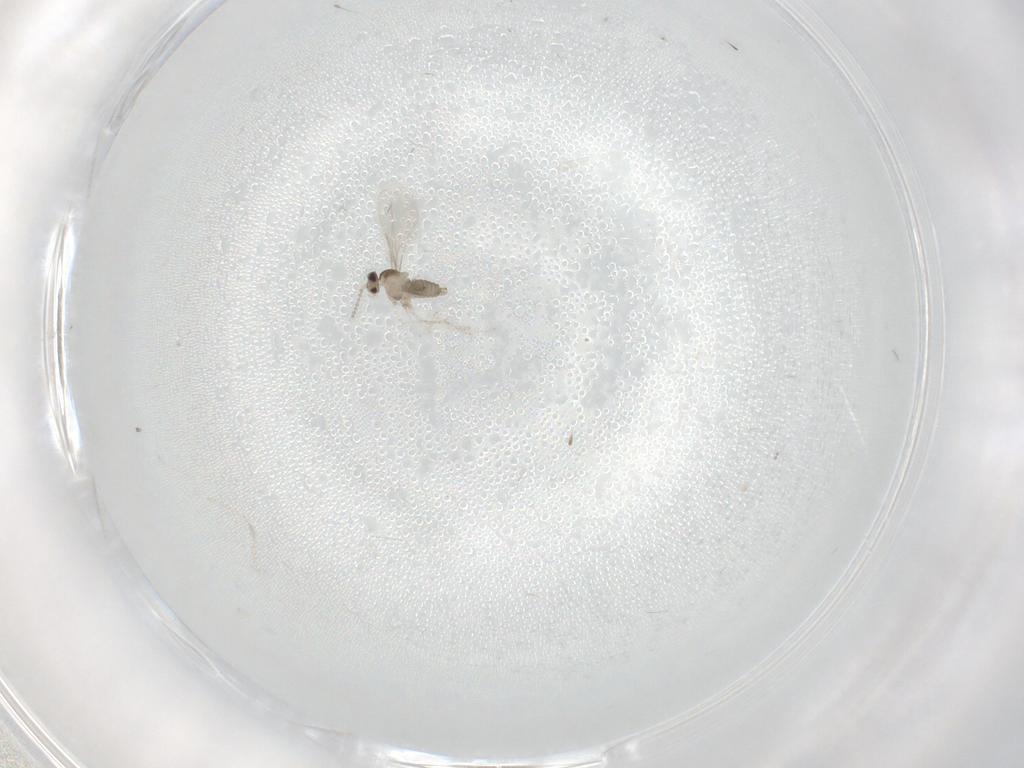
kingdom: Animalia
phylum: Arthropoda
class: Insecta
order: Diptera
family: Cecidomyiidae
